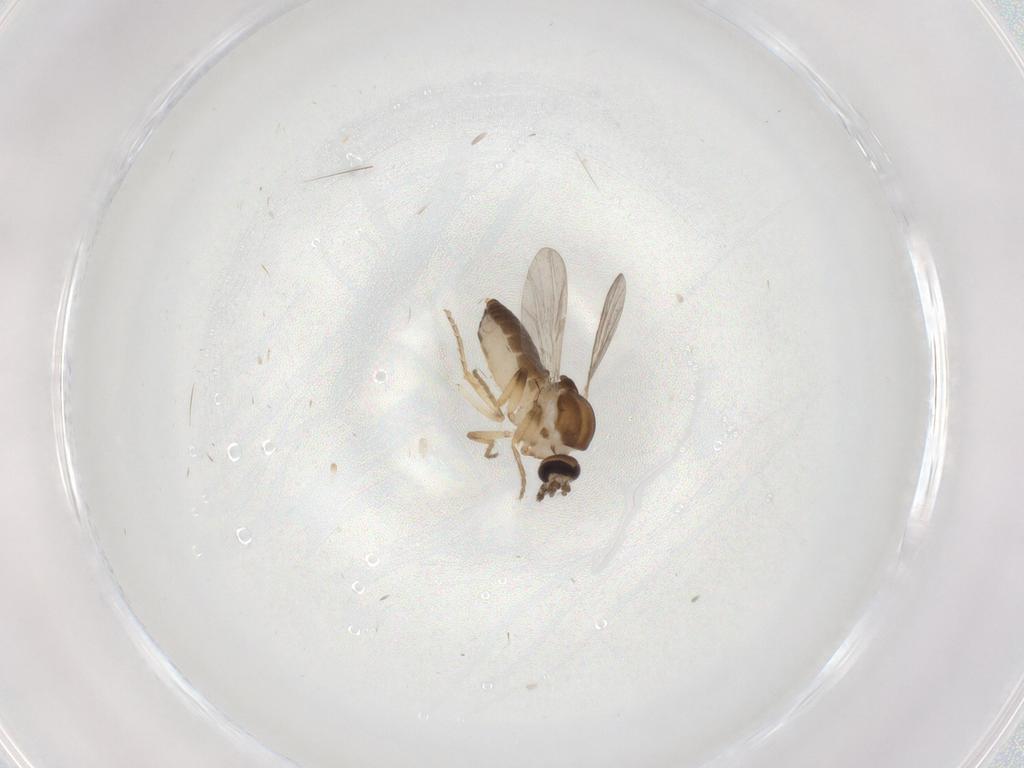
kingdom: Animalia
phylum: Arthropoda
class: Insecta
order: Diptera
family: Ceratopogonidae
